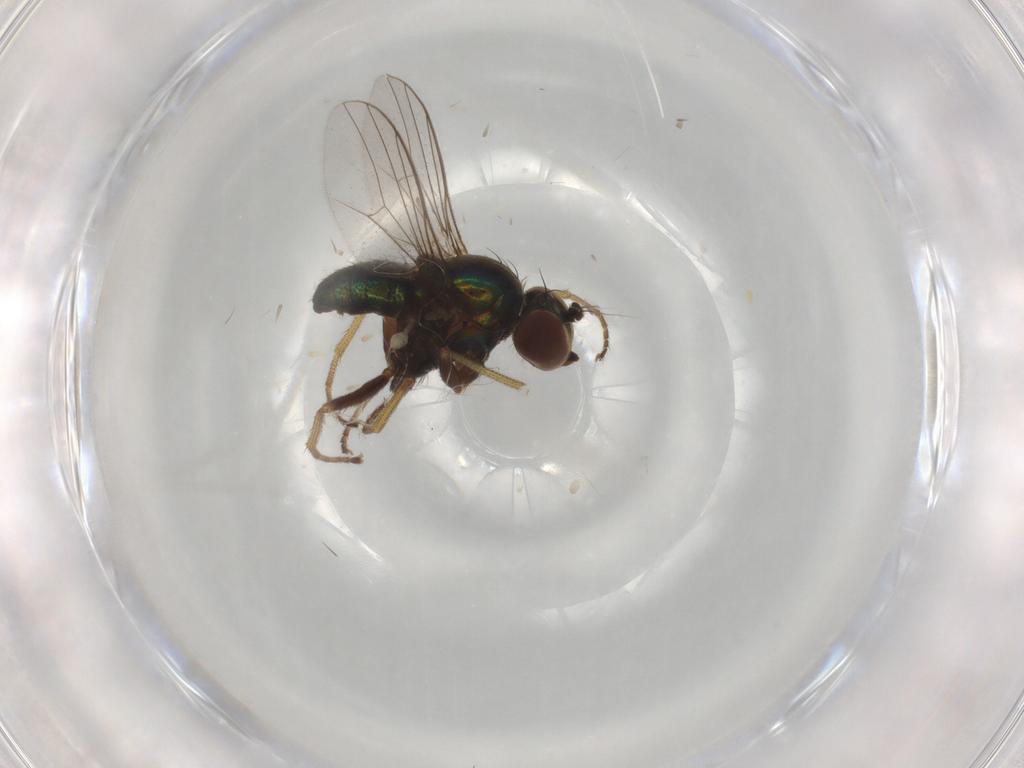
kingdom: Animalia
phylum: Arthropoda
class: Insecta
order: Diptera
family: Dolichopodidae
